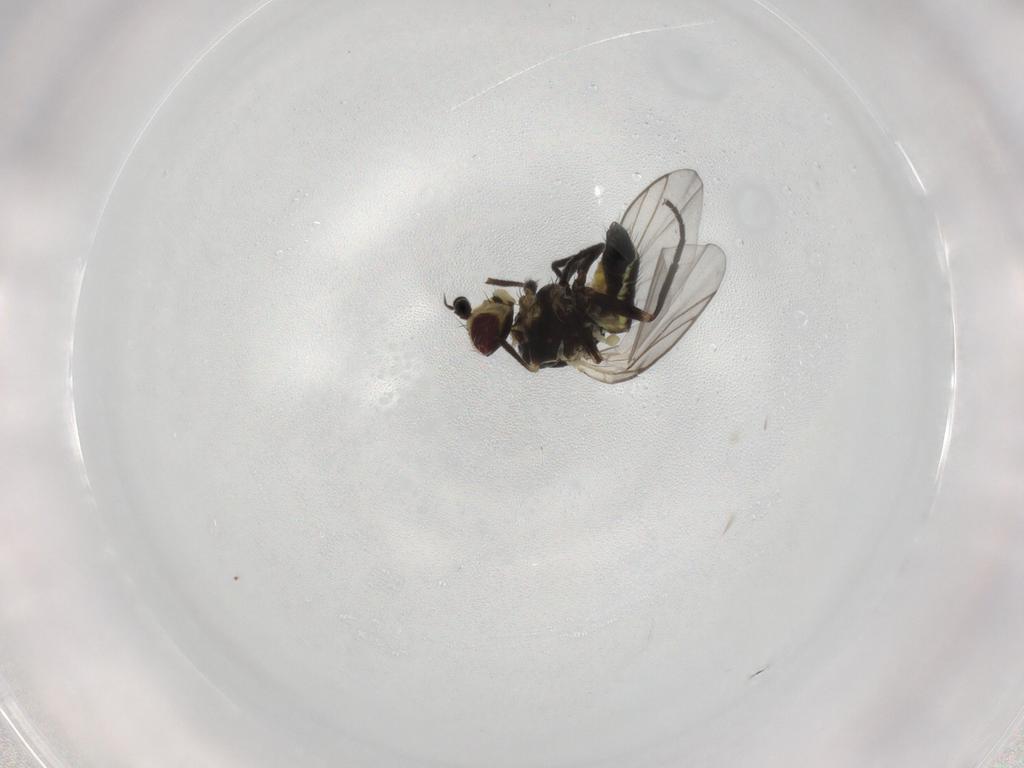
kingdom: Animalia
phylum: Arthropoda
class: Insecta
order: Diptera
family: Agromyzidae
